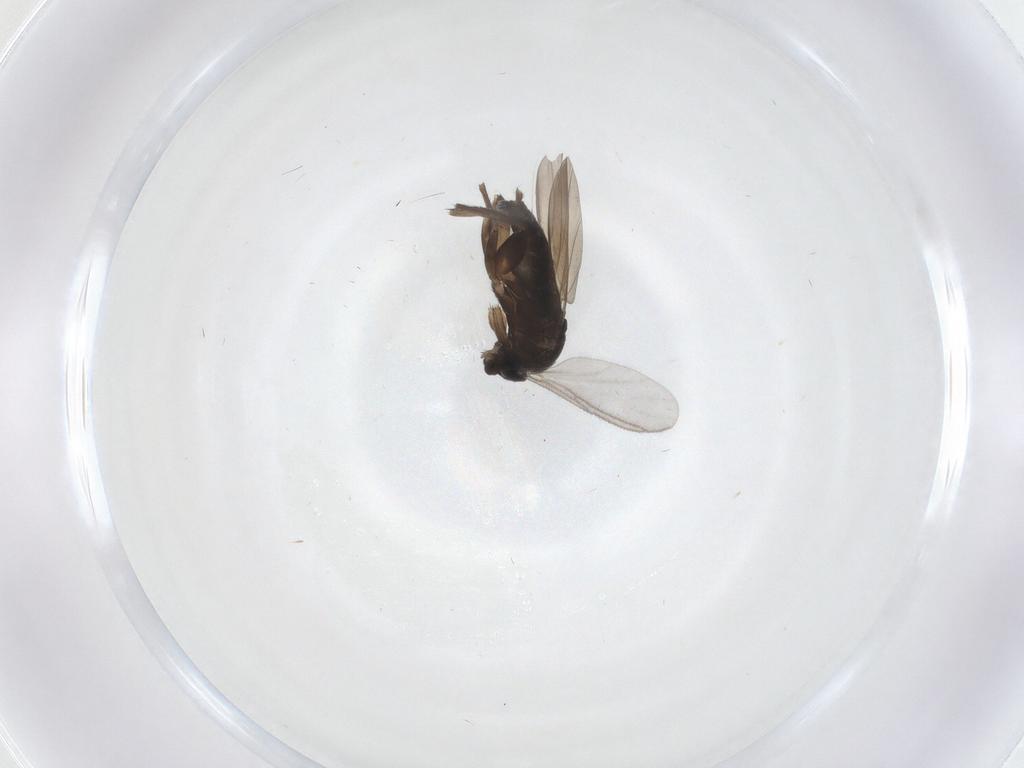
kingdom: Animalia
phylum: Arthropoda
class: Insecta
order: Diptera
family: Phoridae
